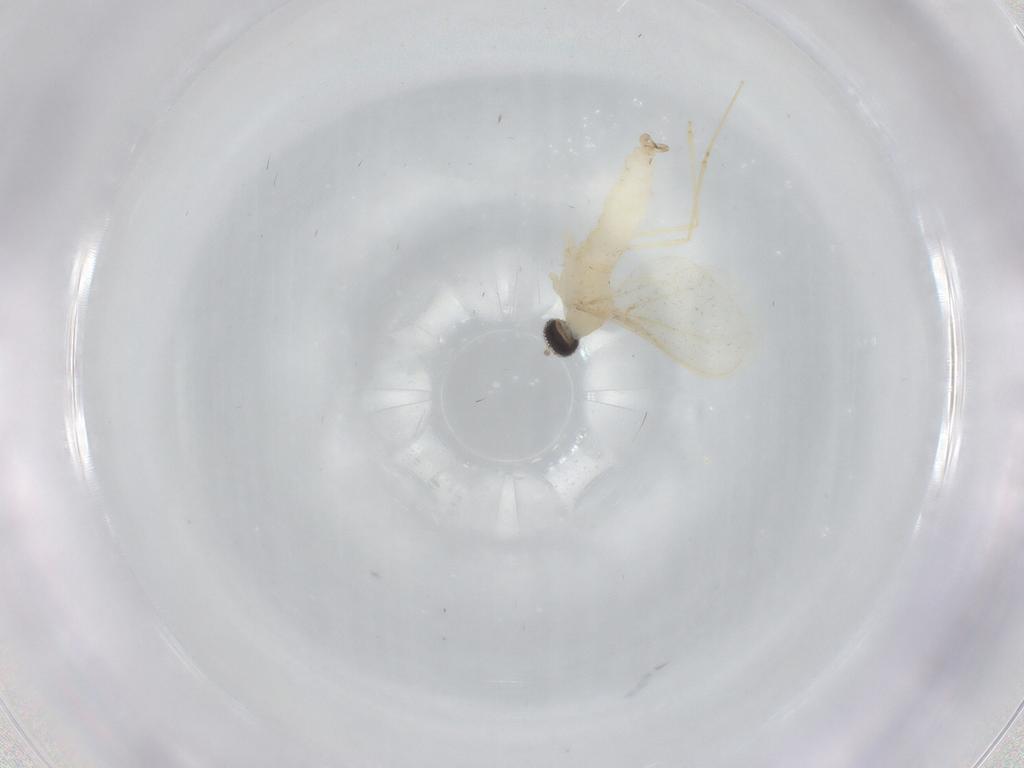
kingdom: Animalia
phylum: Arthropoda
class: Insecta
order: Diptera
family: Cecidomyiidae
